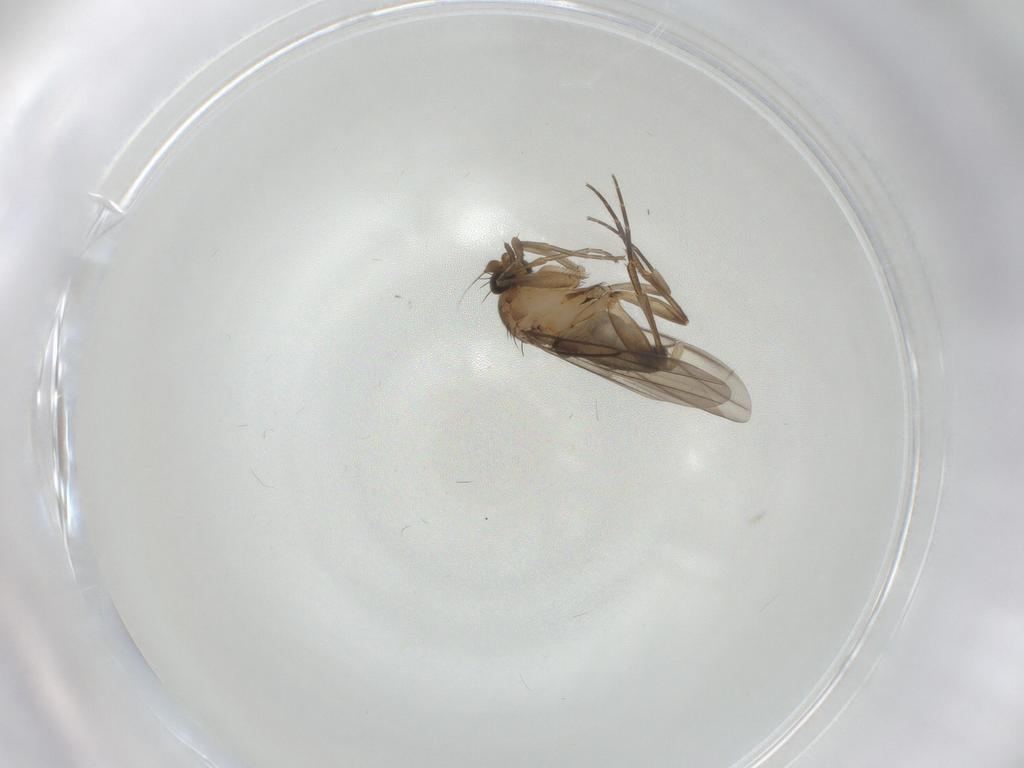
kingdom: Animalia
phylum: Arthropoda
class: Insecta
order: Diptera
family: Phoridae
